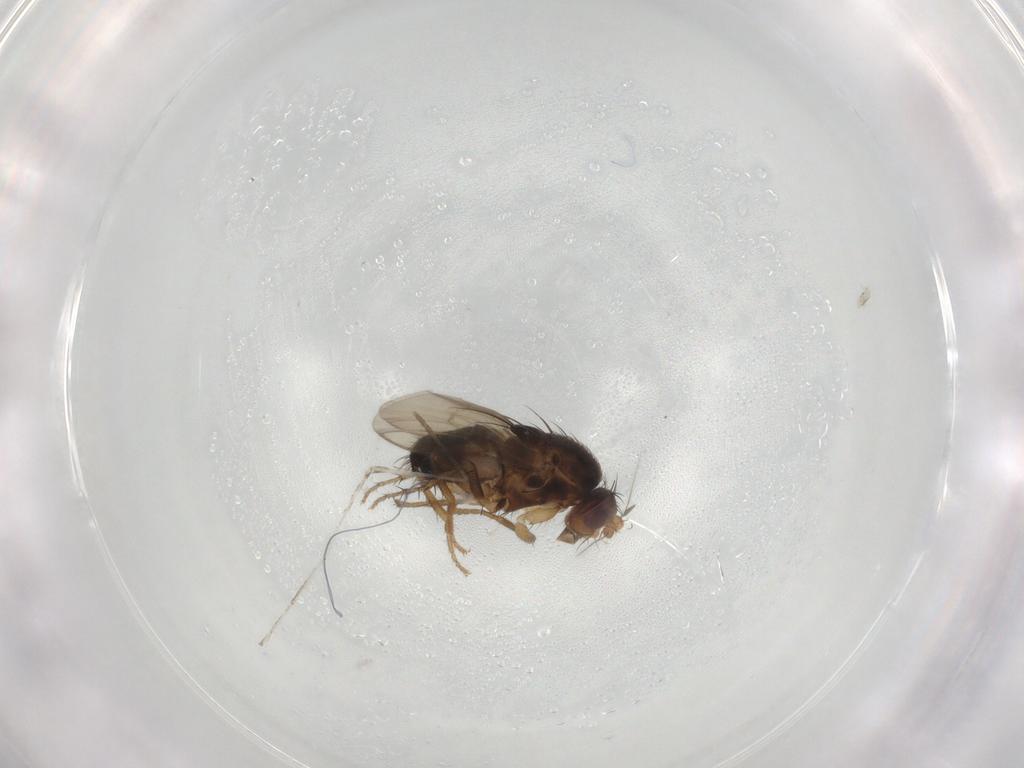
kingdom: Animalia
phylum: Arthropoda
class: Insecta
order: Diptera
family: Sphaeroceridae
